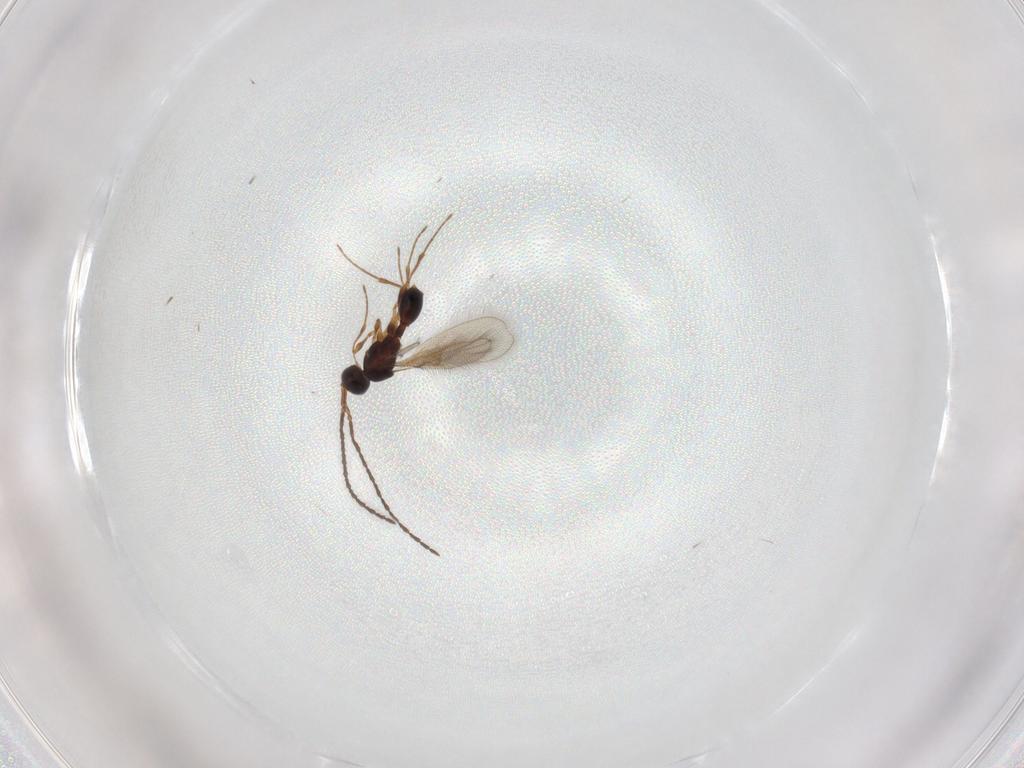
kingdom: Animalia
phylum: Arthropoda
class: Insecta
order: Hymenoptera
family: Diapriidae
